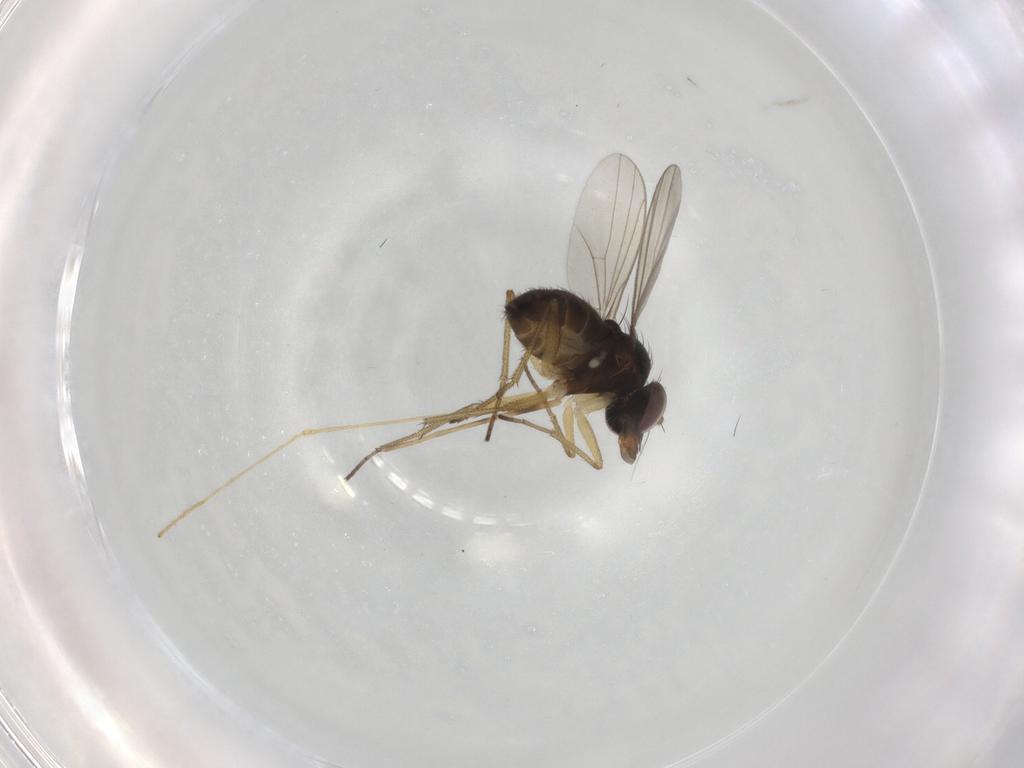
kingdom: Animalia
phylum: Arthropoda
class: Insecta
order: Diptera
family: Dolichopodidae
